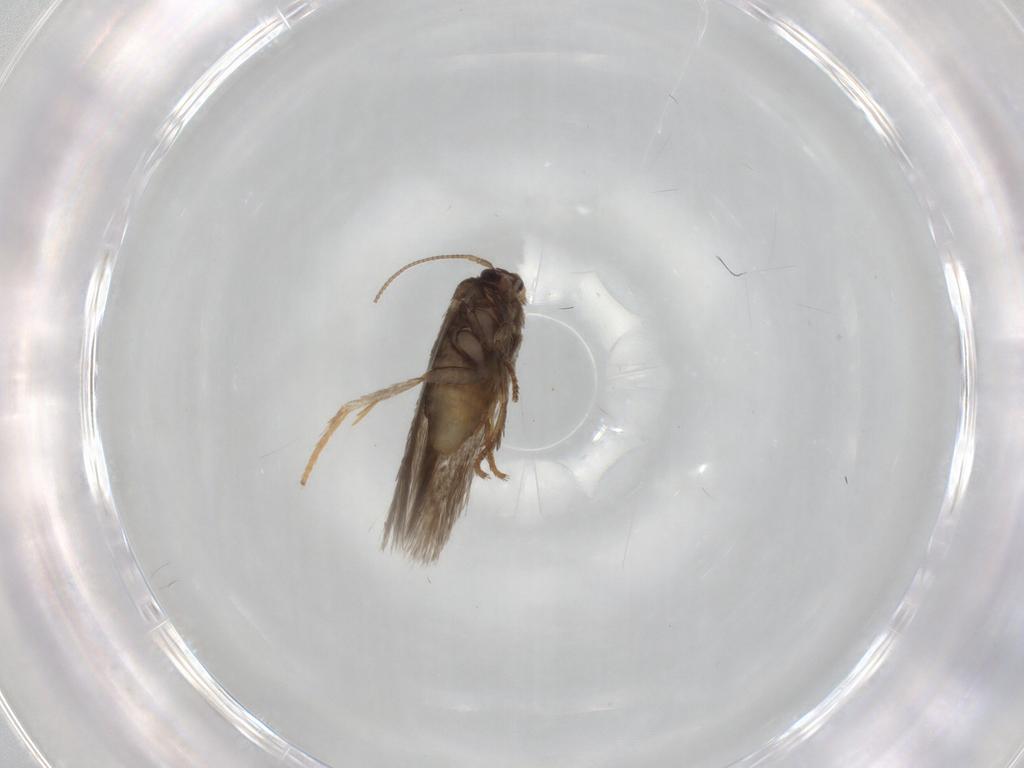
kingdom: Animalia
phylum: Arthropoda
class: Insecta
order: Lepidoptera
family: Nepticulidae
